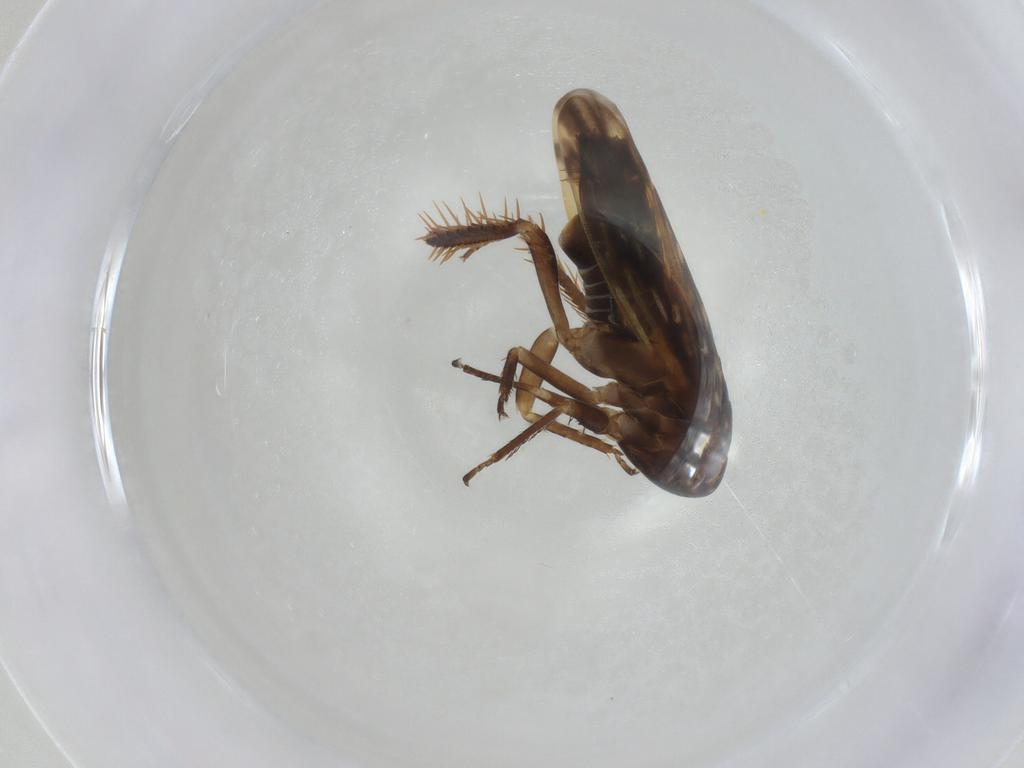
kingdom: Animalia
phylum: Arthropoda
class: Insecta
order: Hemiptera
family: Cicadellidae
